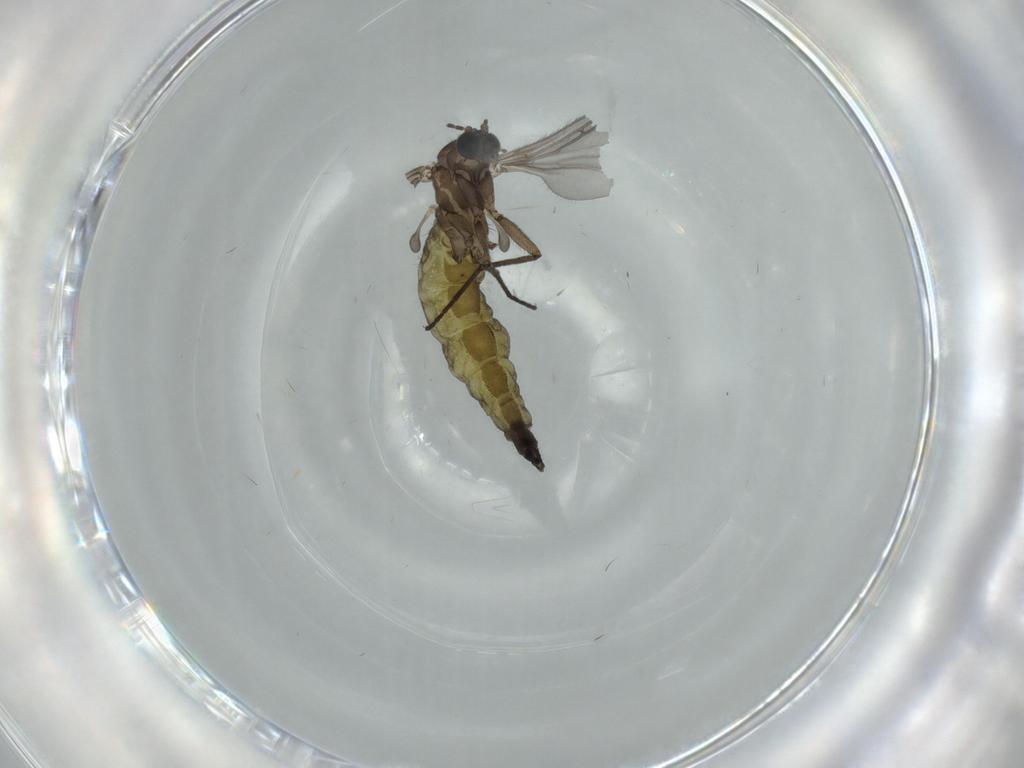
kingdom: Animalia
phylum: Arthropoda
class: Insecta
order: Diptera
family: Sciaridae
